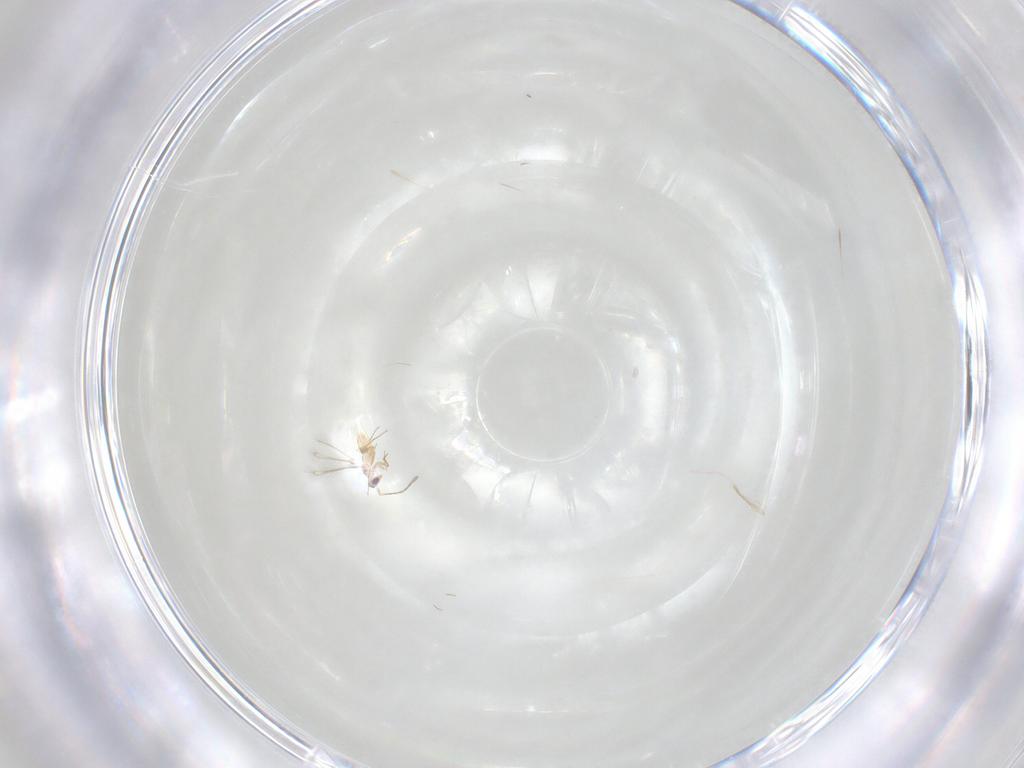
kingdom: Animalia
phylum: Arthropoda
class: Insecta
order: Hymenoptera
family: Mymaridae
